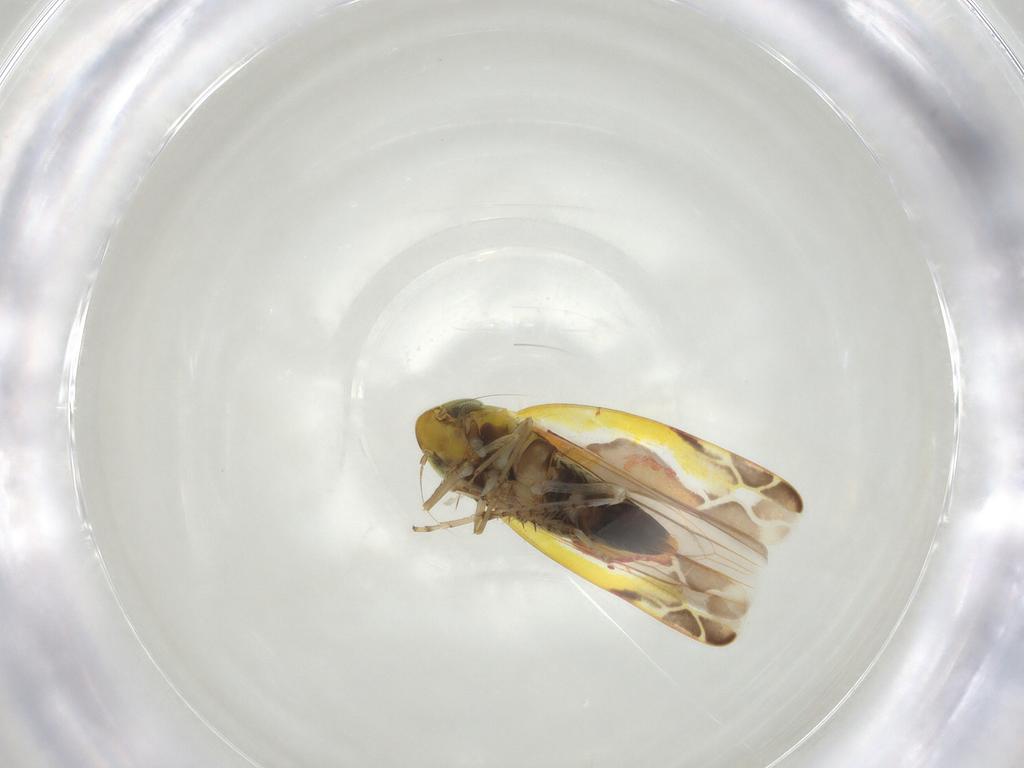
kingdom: Animalia
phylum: Arthropoda
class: Insecta
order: Hemiptera
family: Cicadellidae
